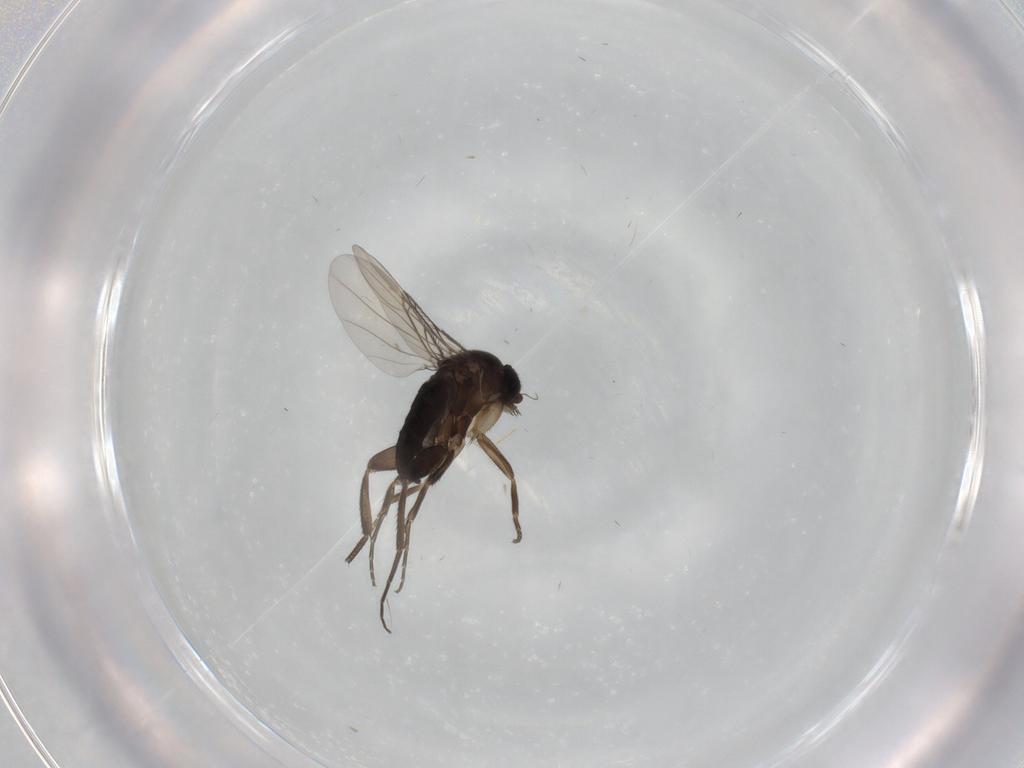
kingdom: Animalia
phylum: Arthropoda
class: Insecta
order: Diptera
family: Phoridae
